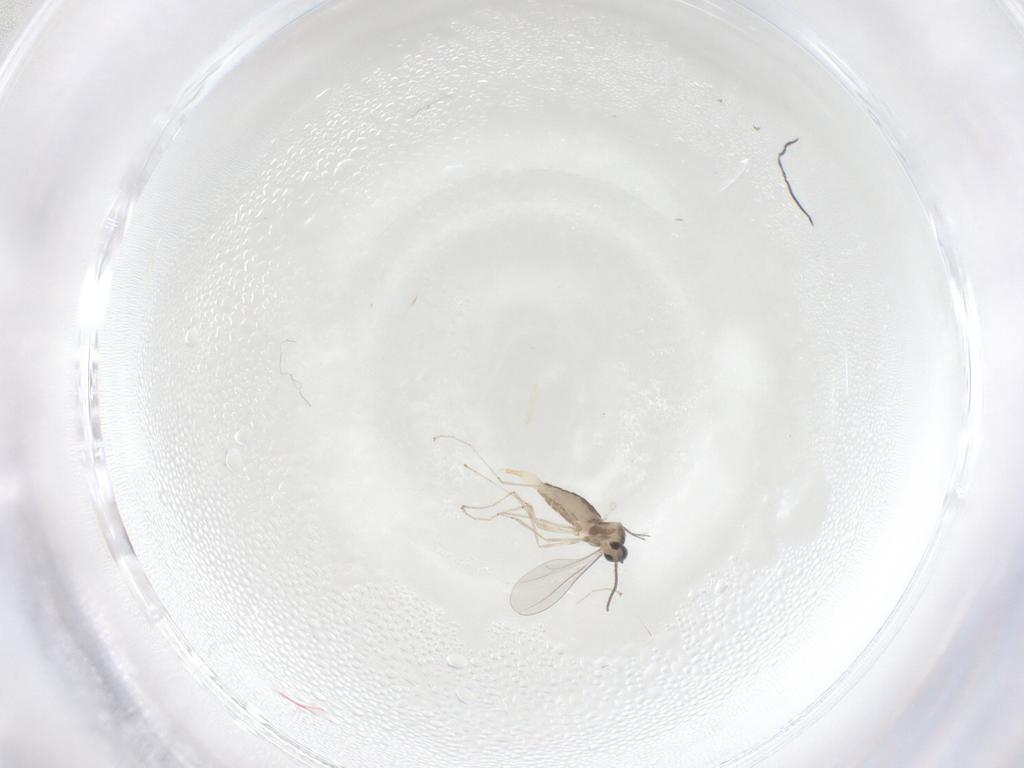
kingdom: Animalia
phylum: Arthropoda
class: Insecta
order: Diptera
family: Cecidomyiidae
